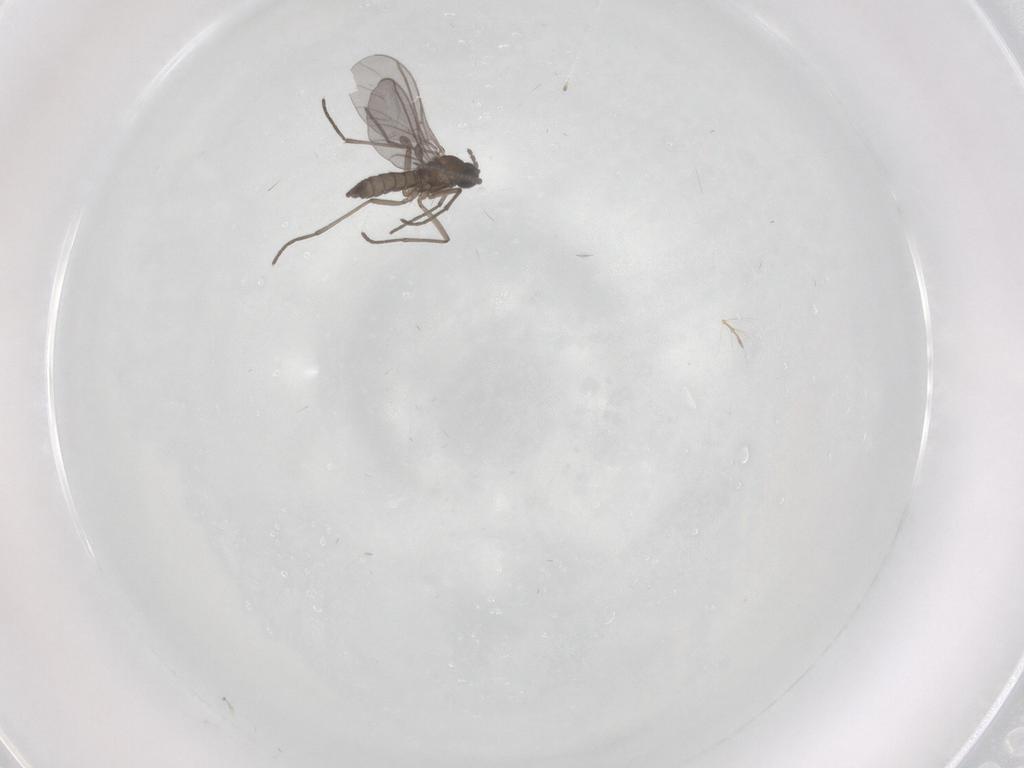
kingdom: Animalia
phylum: Arthropoda
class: Insecta
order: Diptera
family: Sciaridae
